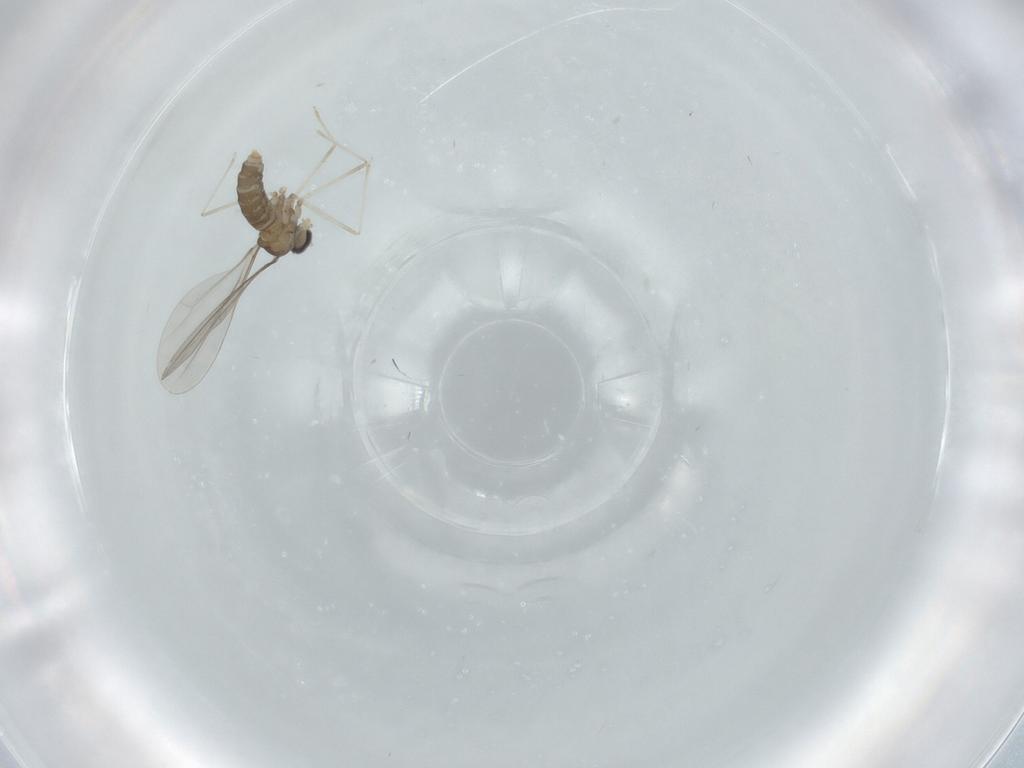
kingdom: Animalia
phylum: Arthropoda
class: Insecta
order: Diptera
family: Cecidomyiidae
